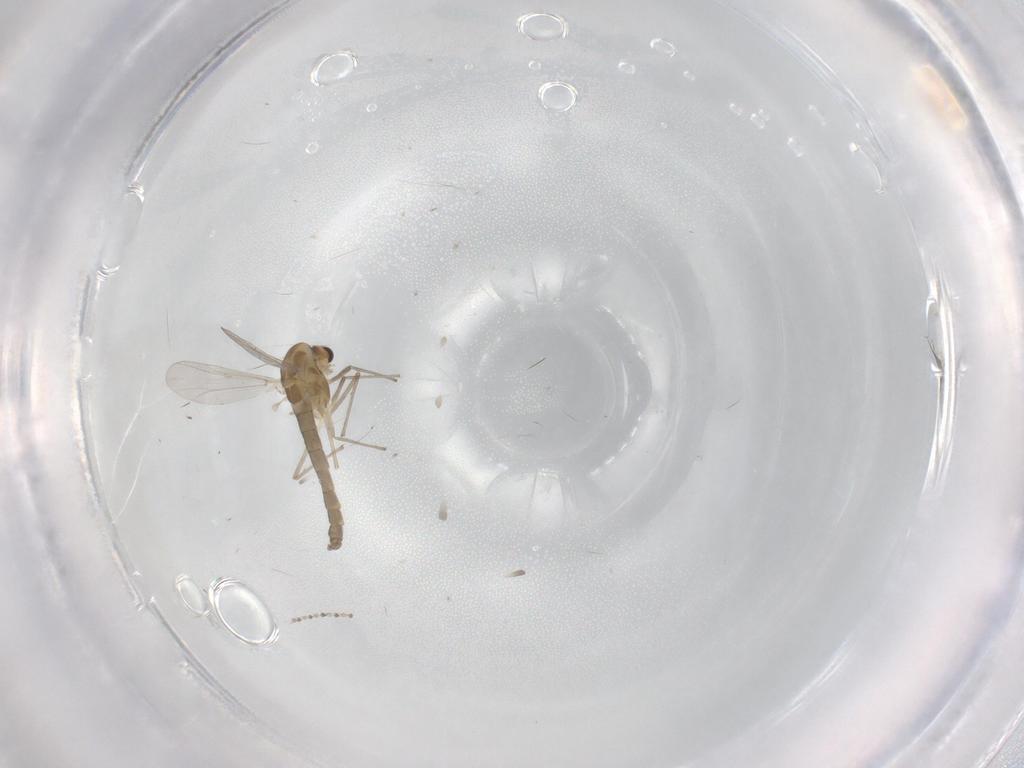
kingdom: Animalia
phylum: Arthropoda
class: Insecta
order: Diptera
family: Chironomidae
